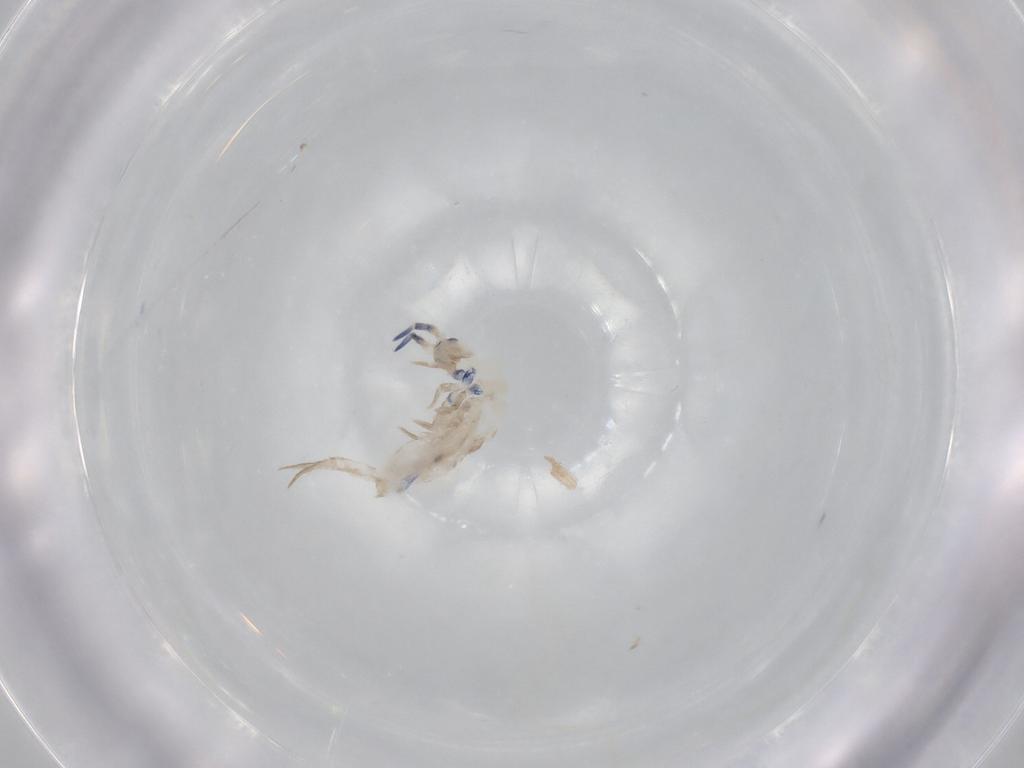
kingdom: Animalia
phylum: Arthropoda
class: Collembola
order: Entomobryomorpha
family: Entomobryidae
